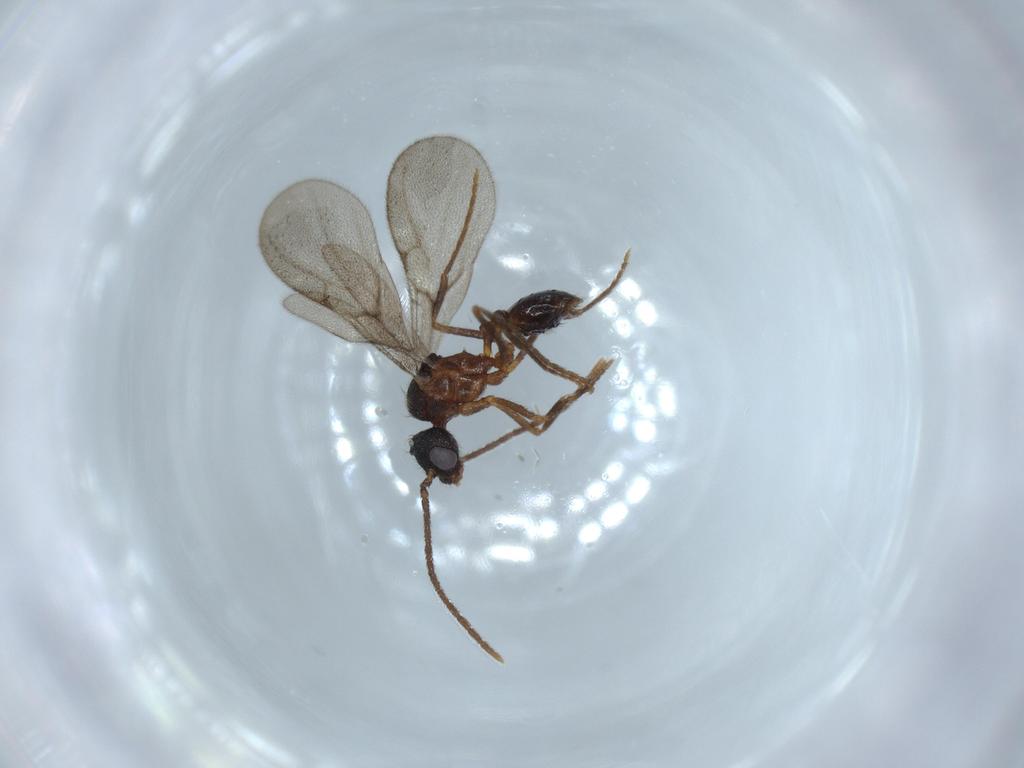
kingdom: Animalia
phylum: Arthropoda
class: Insecta
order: Hymenoptera
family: Formicidae
